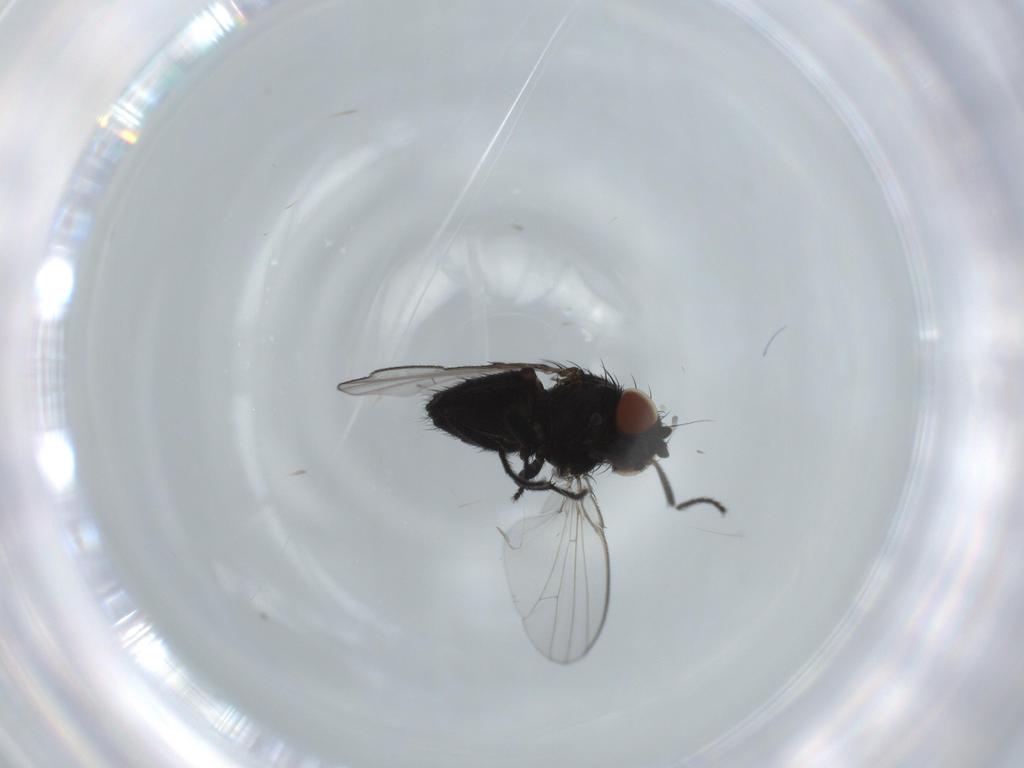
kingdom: Animalia
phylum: Arthropoda
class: Insecta
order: Diptera
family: Milichiidae
